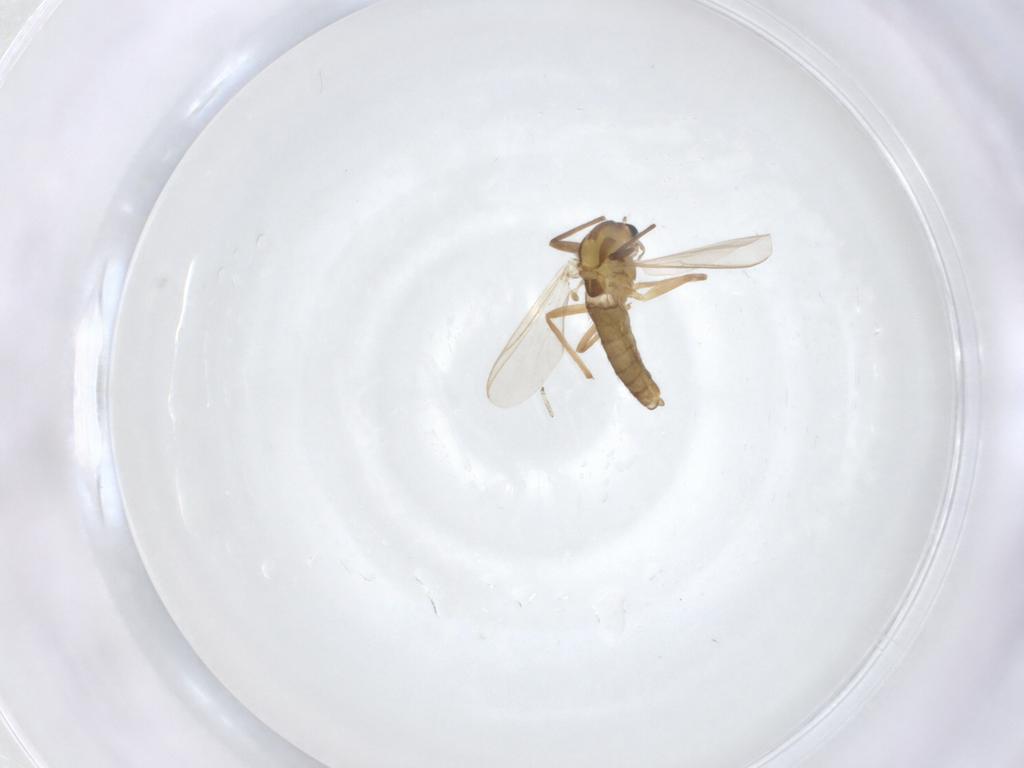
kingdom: Animalia
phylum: Arthropoda
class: Insecta
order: Diptera
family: Chironomidae
